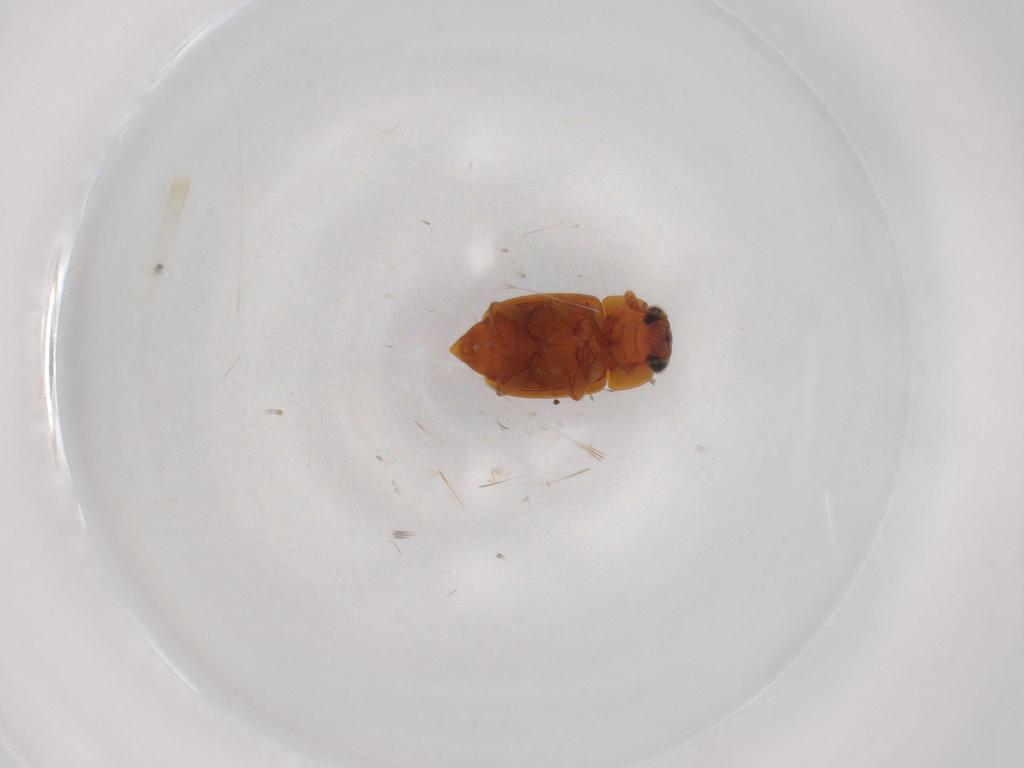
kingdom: Animalia
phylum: Arthropoda
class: Insecta
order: Coleoptera
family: Nitidulidae
